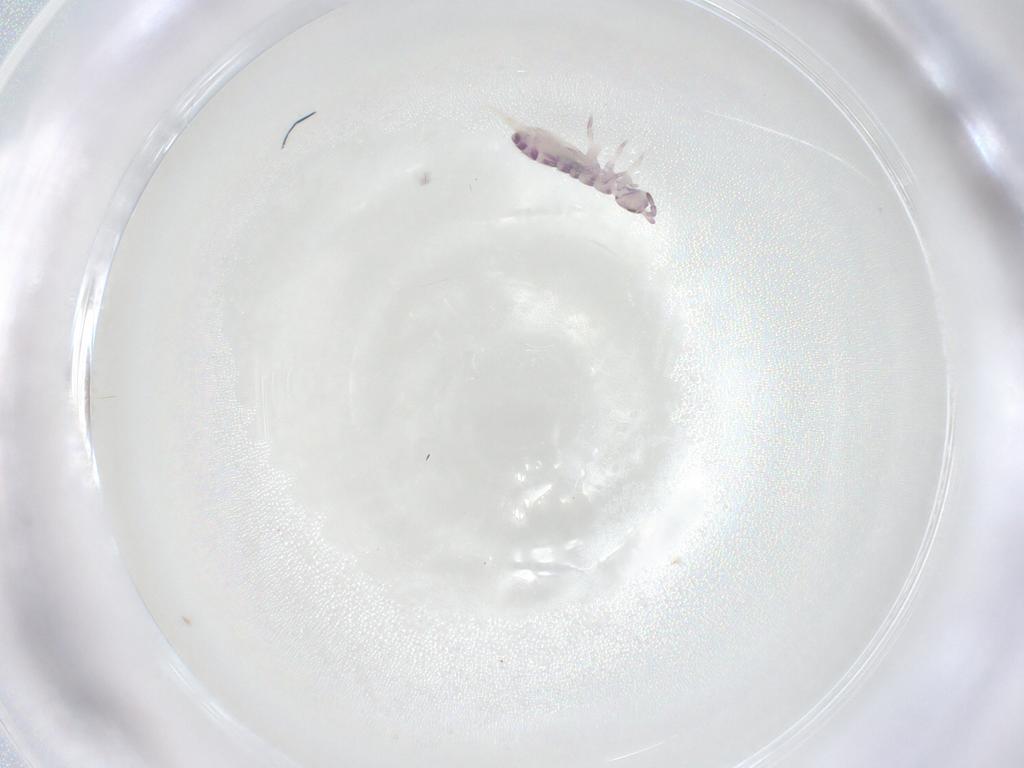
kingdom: Animalia
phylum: Arthropoda
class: Collembola
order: Entomobryomorpha
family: Isotomidae
